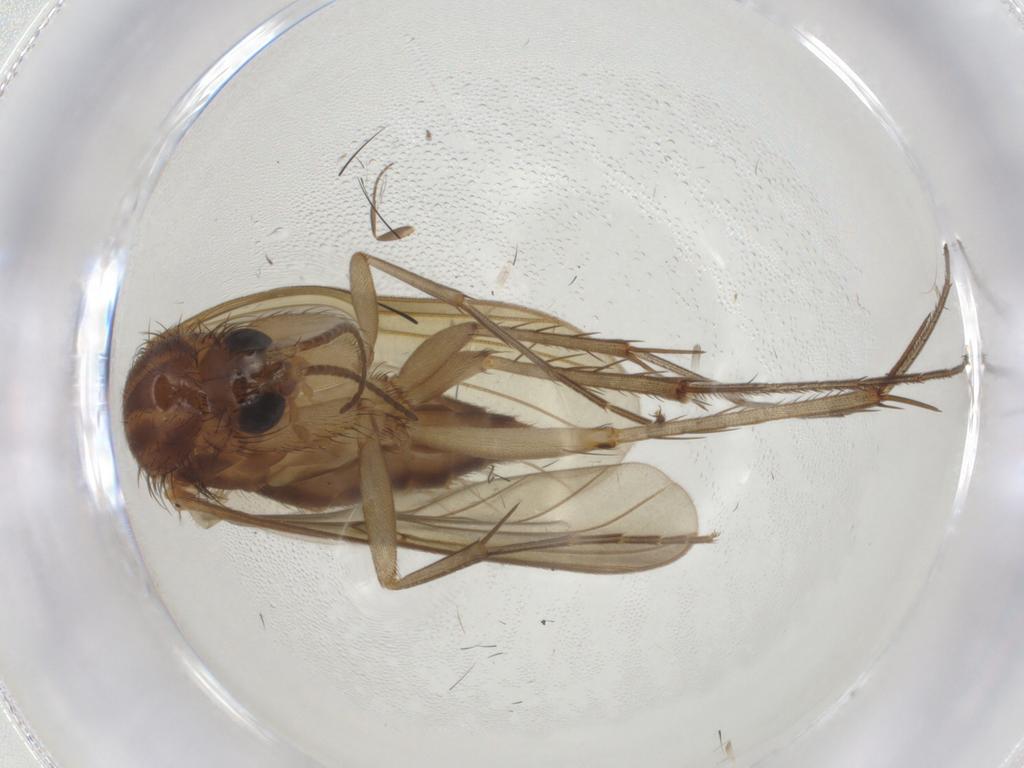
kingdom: Animalia
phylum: Arthropoda
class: Insecta
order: Diptera
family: Mycetophilidae
